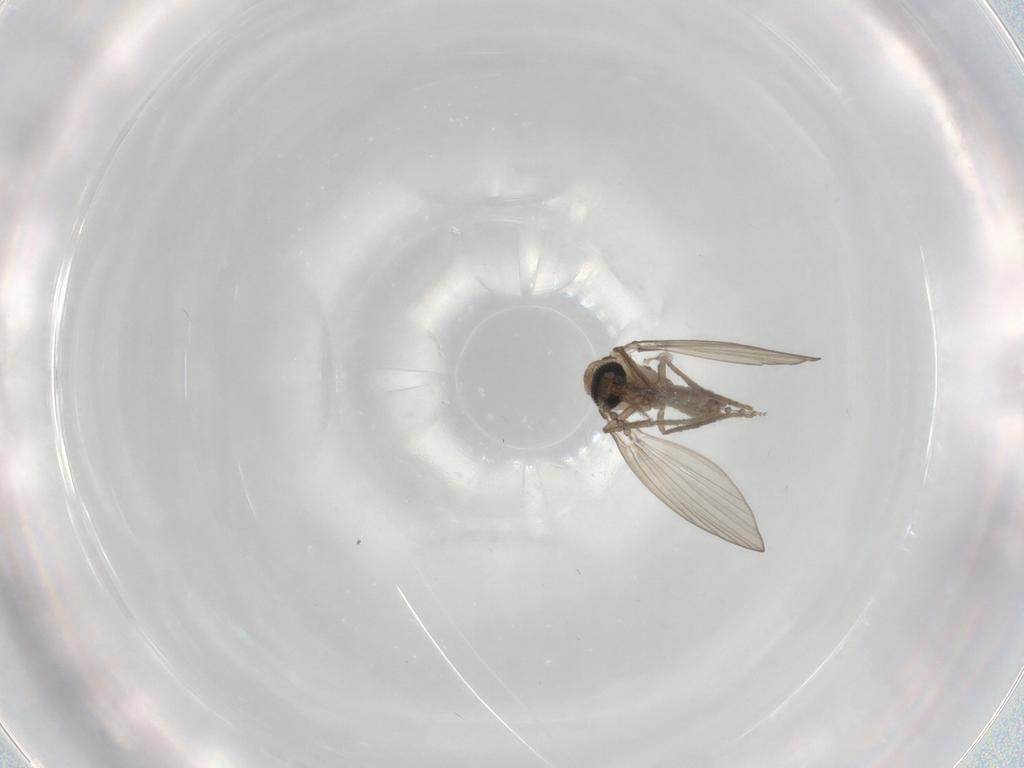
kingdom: Animalia
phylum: Arthropoda
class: Insecta
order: Diptera
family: Psychodidae
